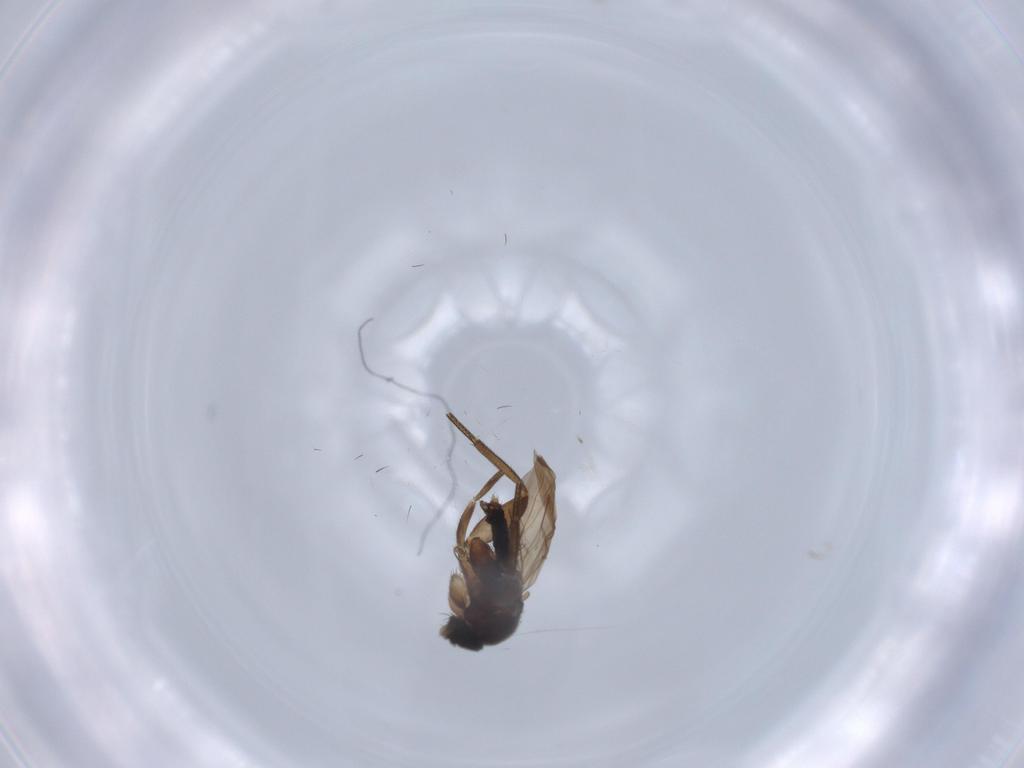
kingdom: Animalia
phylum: Arthropoda
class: Insecta
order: Diptera
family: Phoridae
